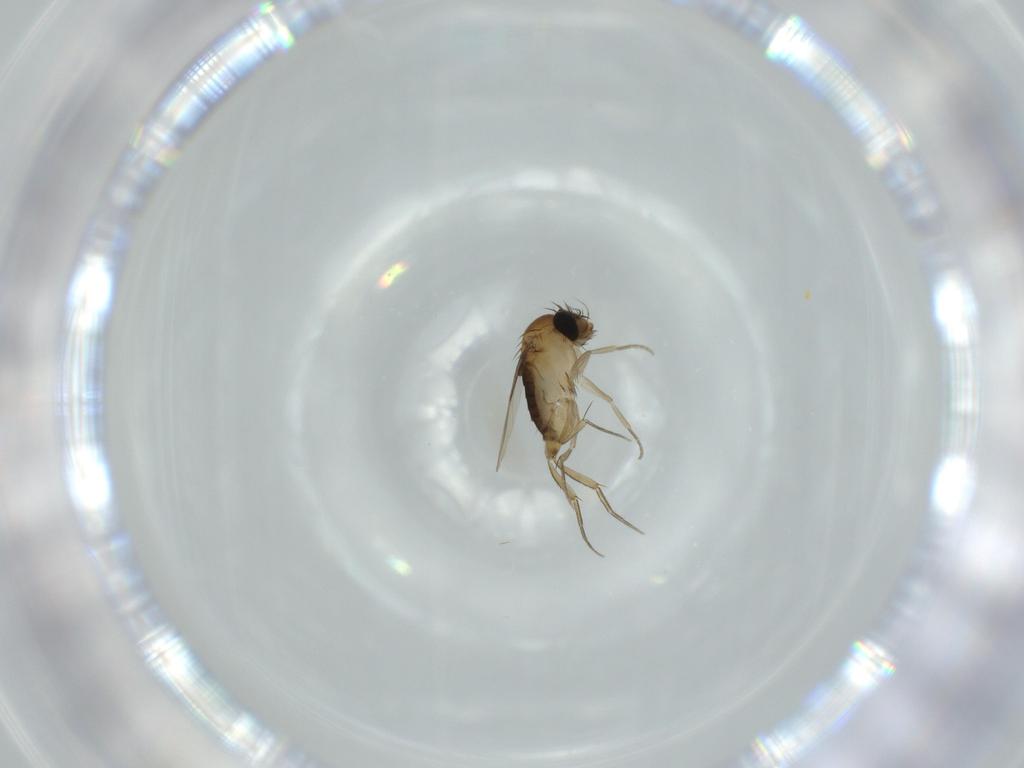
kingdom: Animalia
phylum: Arthropoda
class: Insecta
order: Diptera
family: Phoridae
